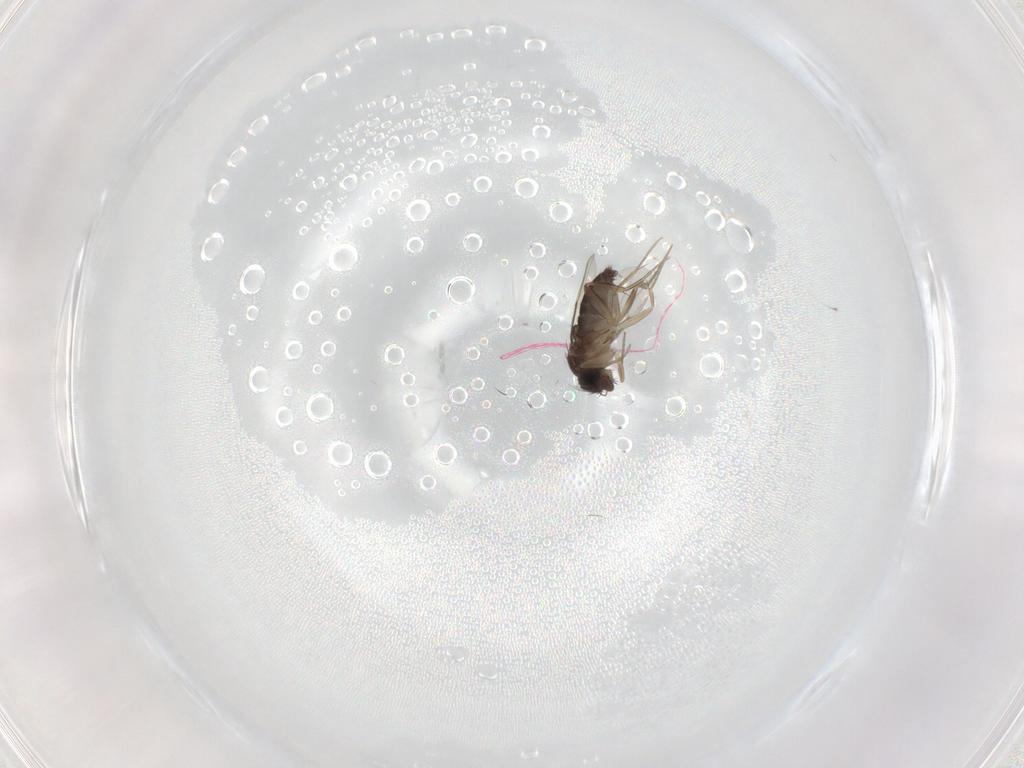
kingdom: Animalia
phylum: Arthropoda
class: Insecta
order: Diptera
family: Phoridae
